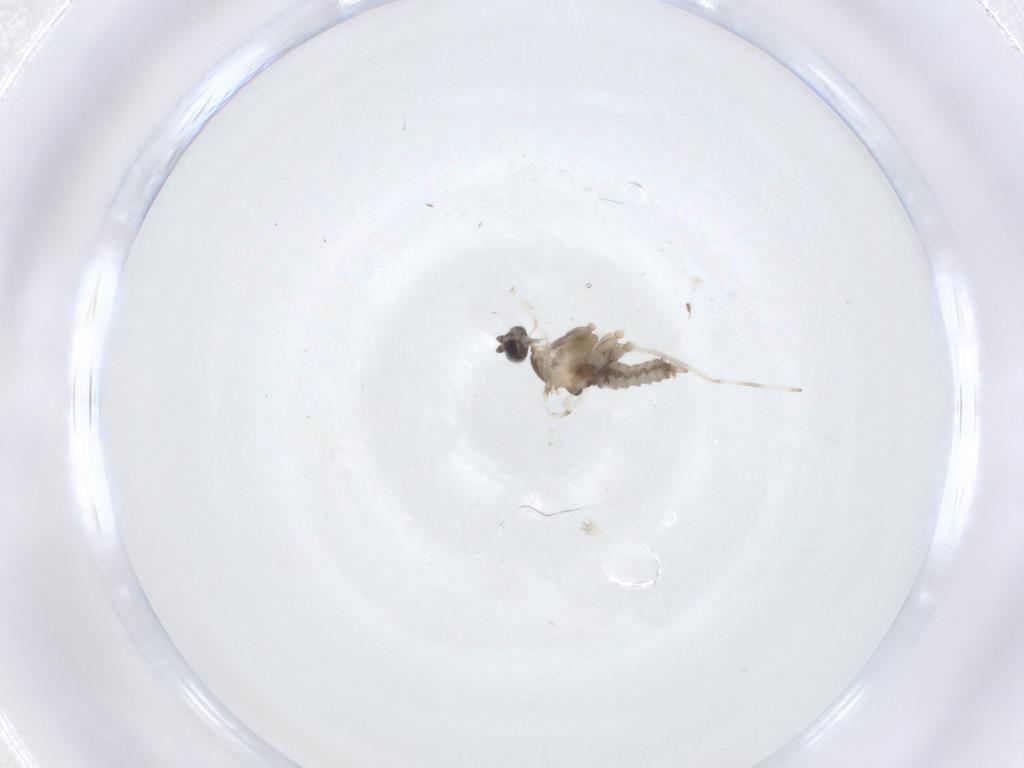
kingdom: Animalia
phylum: Arthropoda
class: Insecta
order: Diptera
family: Cecidomyiidae
